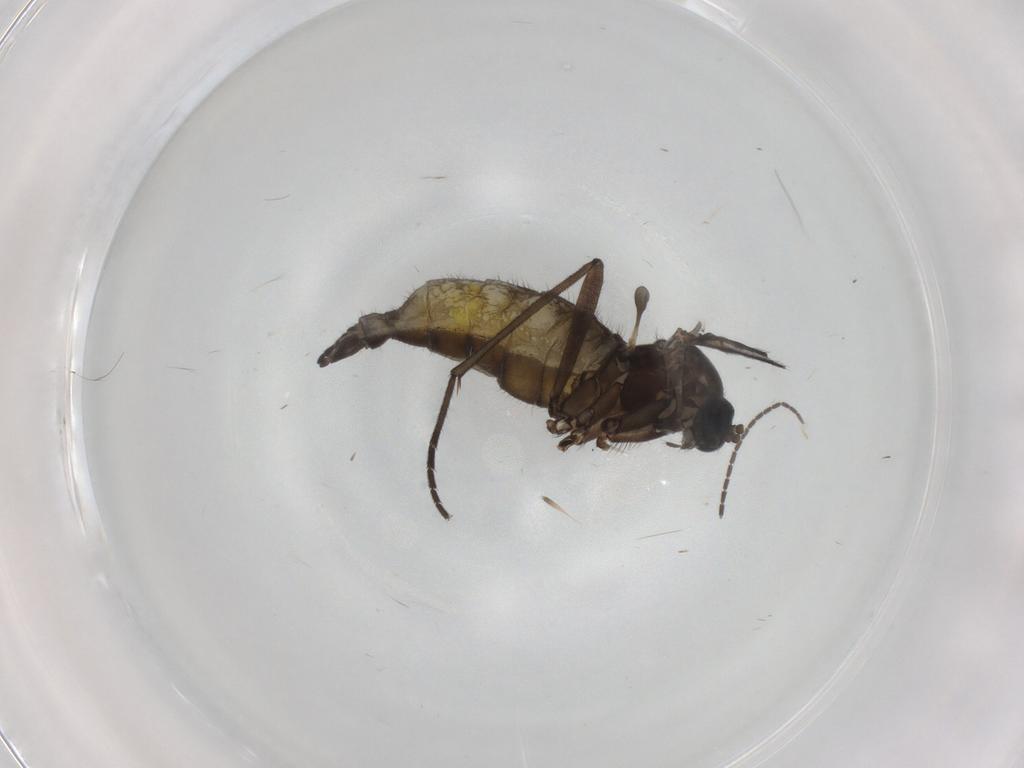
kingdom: Animalia
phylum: Arthropoda
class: Insecta
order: Diptera
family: Sciaridae
